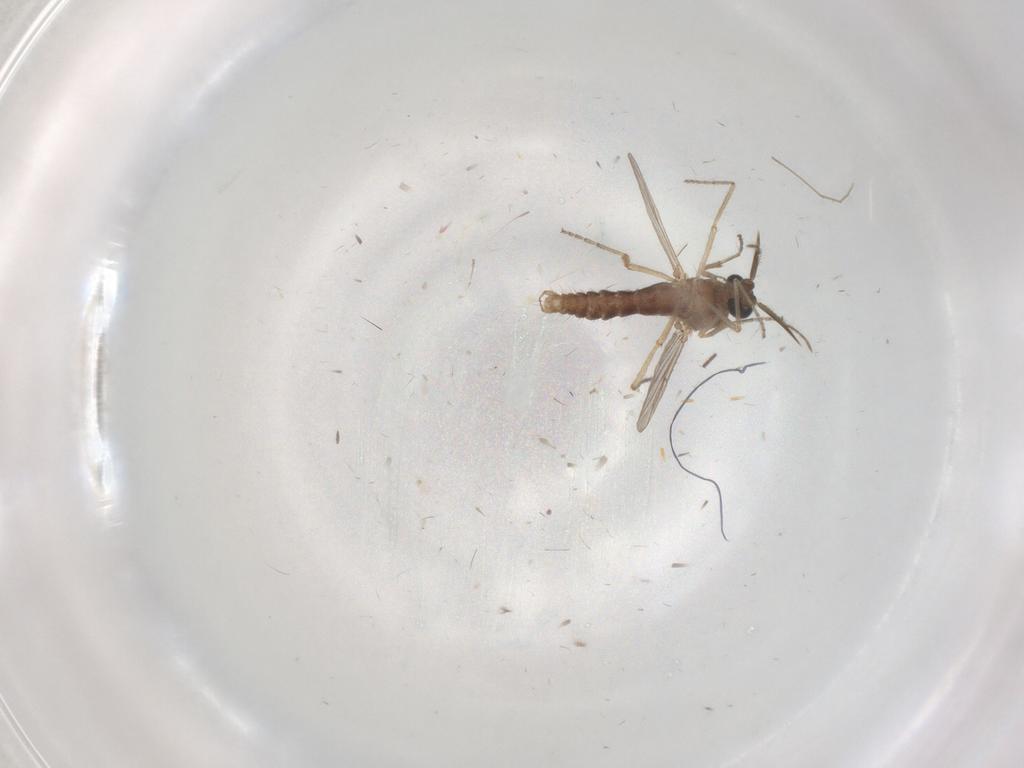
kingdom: Animalia
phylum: Arthropoda
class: Insecta
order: Diptera
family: Ceratopogonidae
